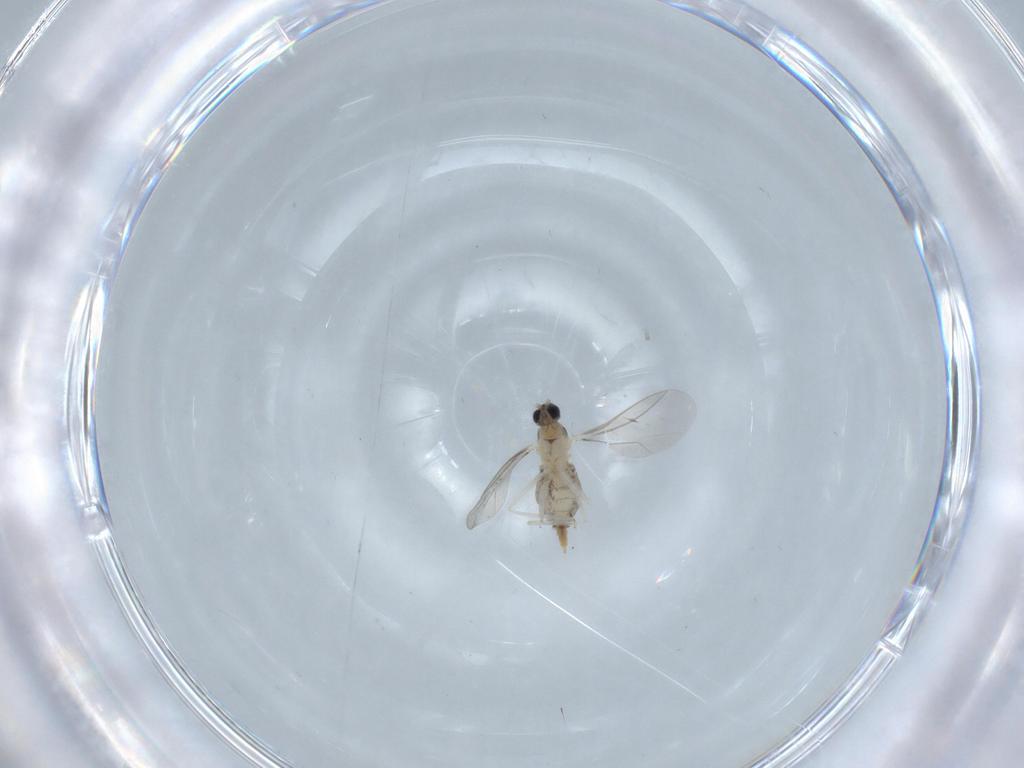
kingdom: Animalia
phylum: Arthropoda
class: Insecta
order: Diptera
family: Cecidomyiidae
